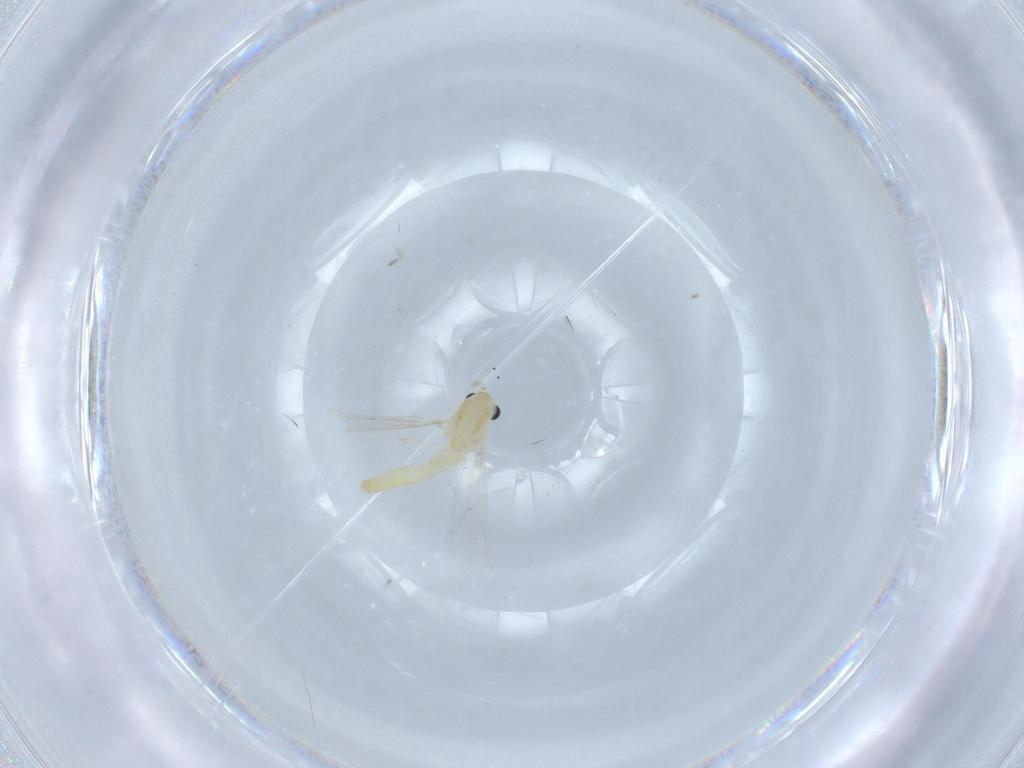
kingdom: Animalia
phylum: Arthropoda
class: Insecta
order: Diptera
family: Chironomidae
